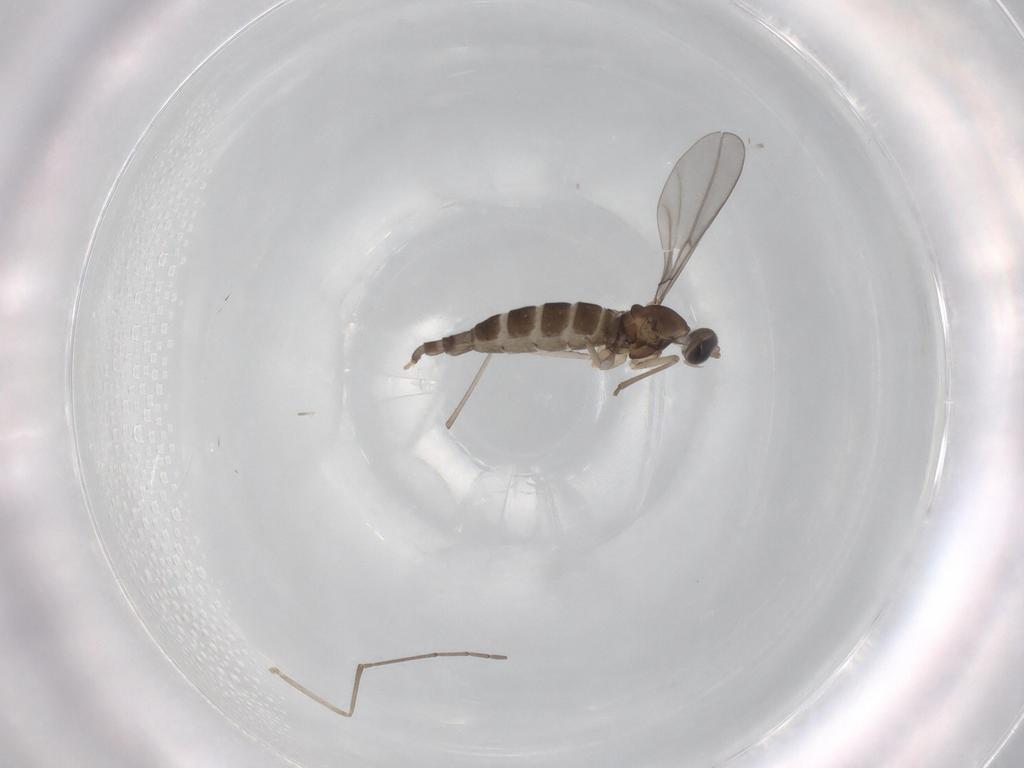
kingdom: Animalia
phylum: Arthropoda
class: Insecta
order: Diptera
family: Cecidomyiidae
